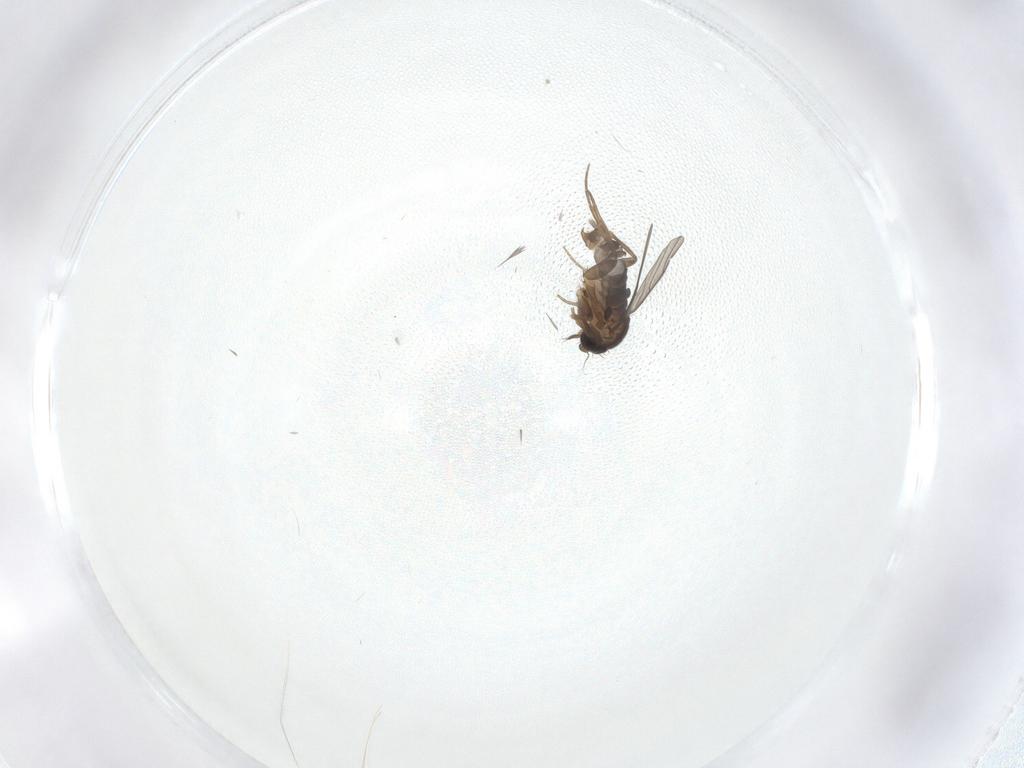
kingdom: Animalia
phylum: Arthropoda
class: Insecta
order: Diptera
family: Phoridae
